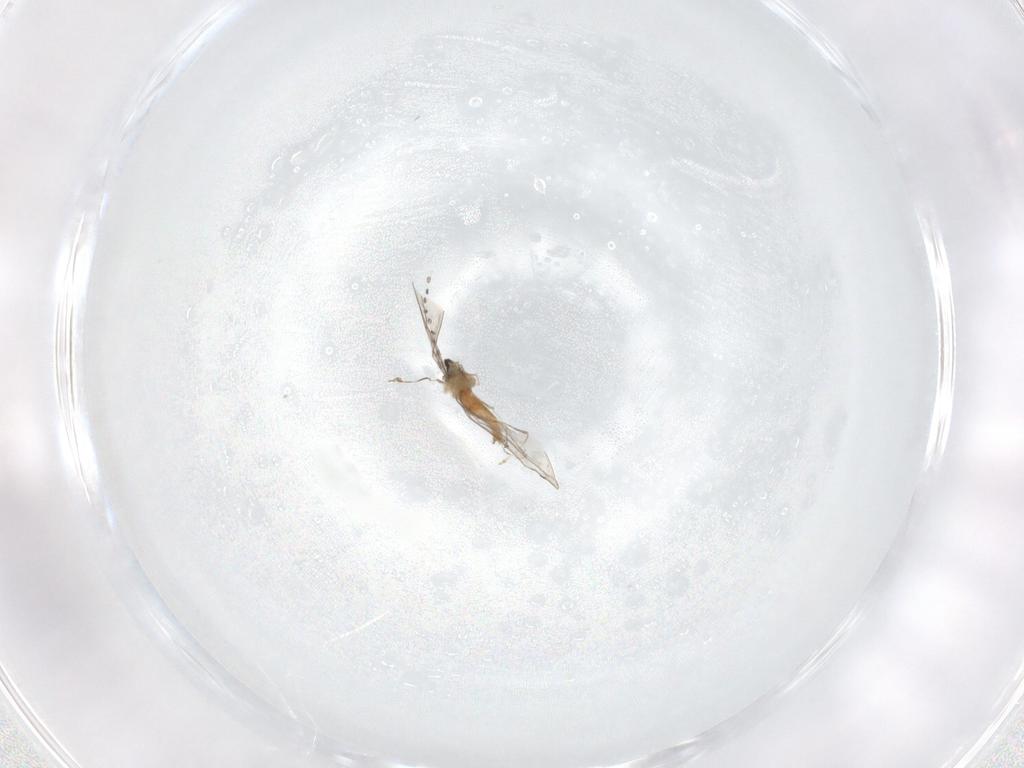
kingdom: Animalia
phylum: Arthropoda
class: Insecta
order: Diptera
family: Cecidomyiidae
